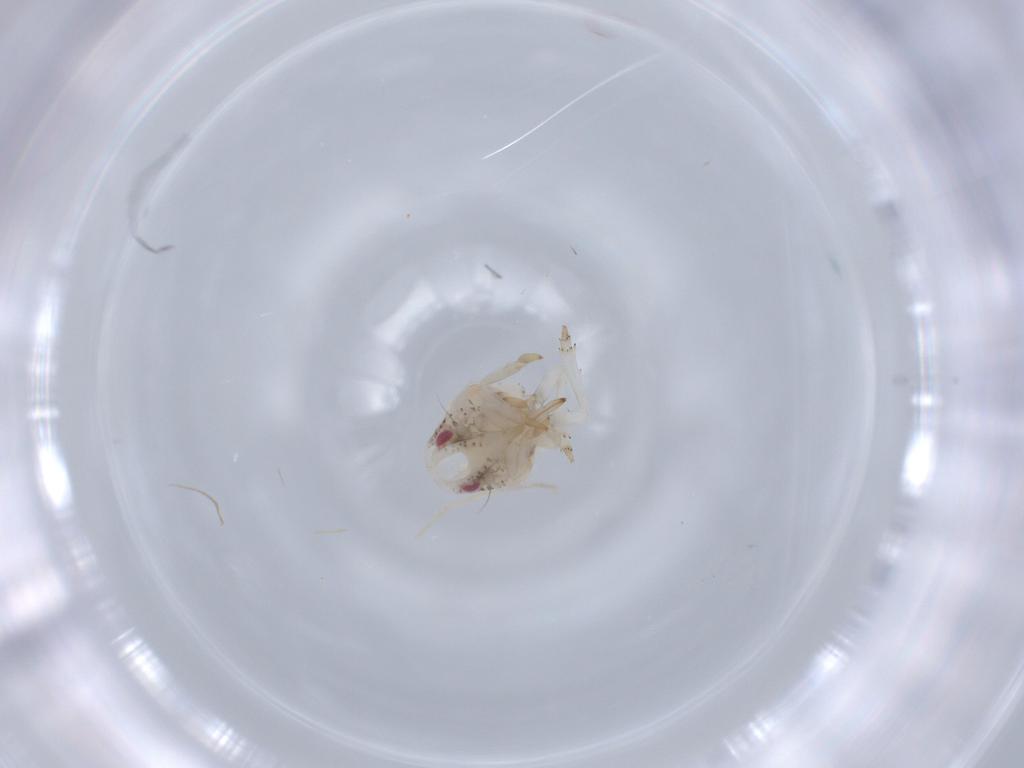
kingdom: Animalia
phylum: Arthropoda
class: Insecta
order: Hemiptera
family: Acanaloniidae
